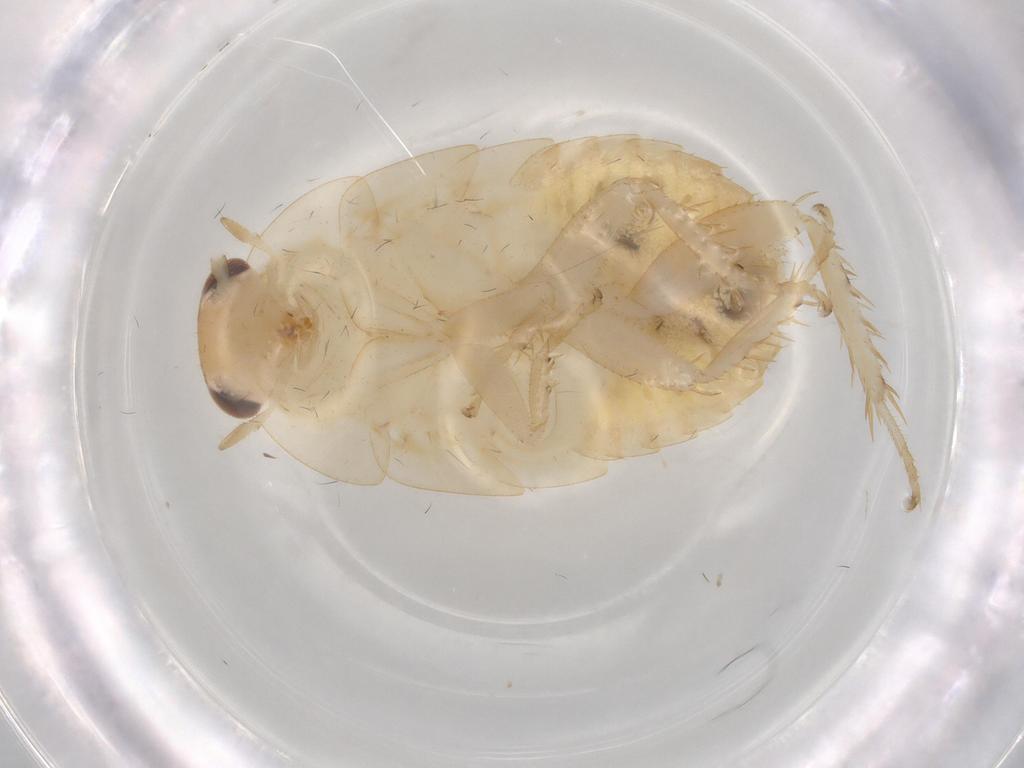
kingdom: Animalia
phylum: Arthropoda
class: Insecta
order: Blattodea
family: Ectobiidae
